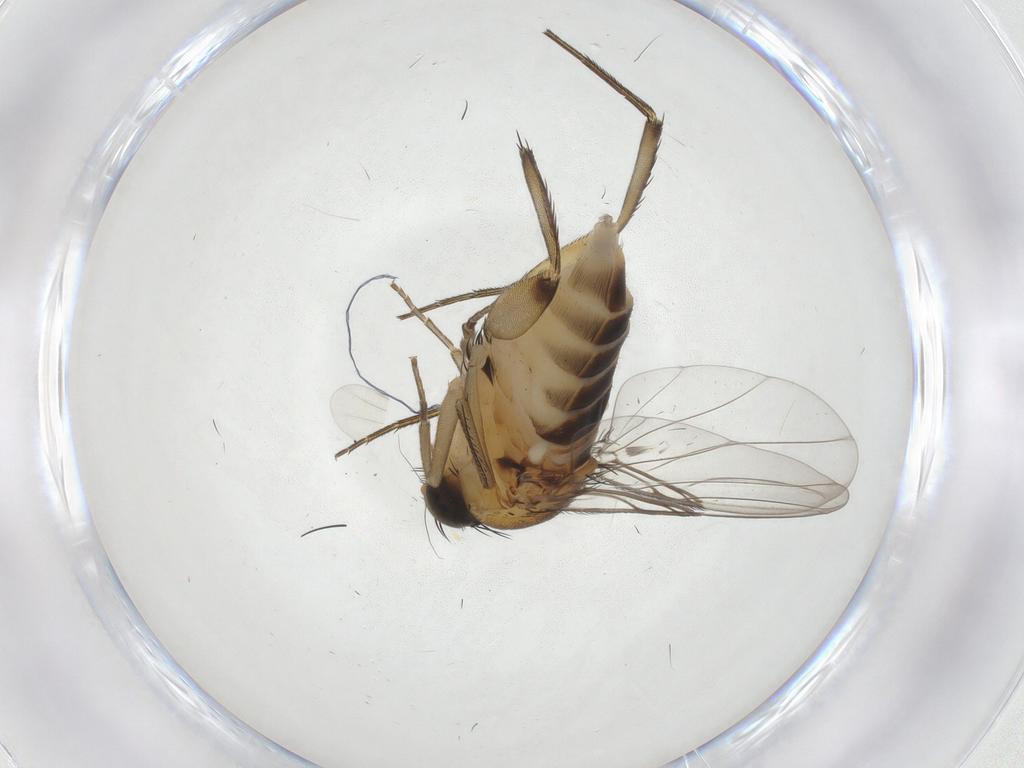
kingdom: Animalia
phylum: Arthropoda
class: Insecta
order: Diptera
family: Phoridae
